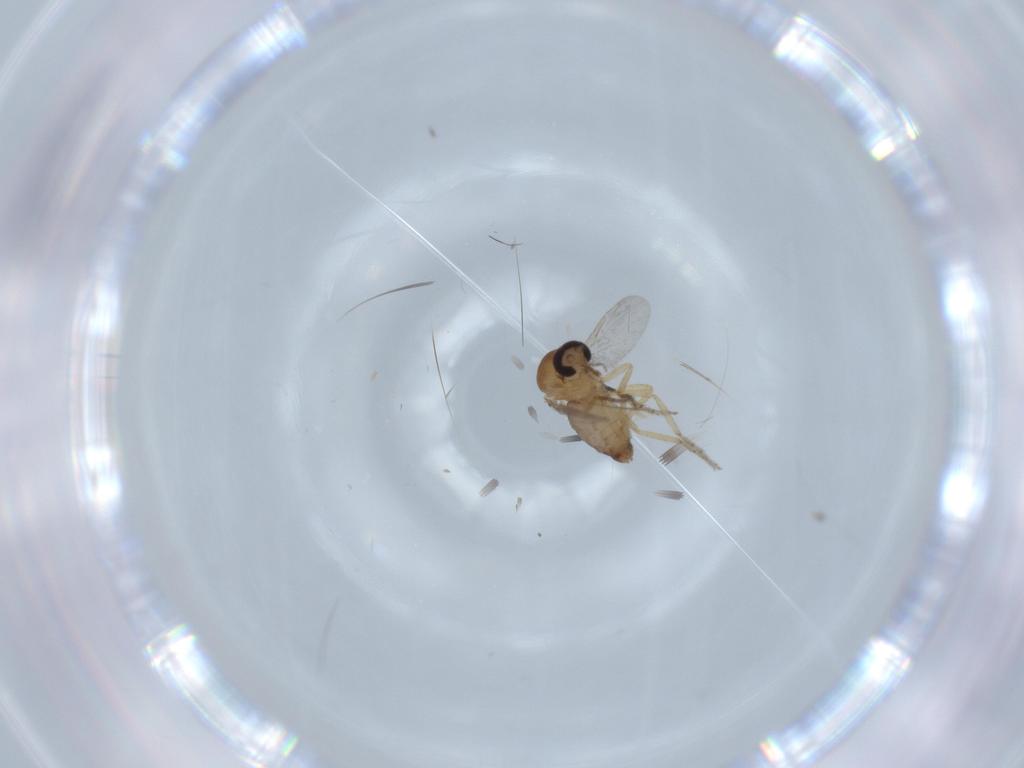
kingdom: Animalia
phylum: Arthropoda
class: Insecta
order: Diptera
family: Ceratopogonidae
